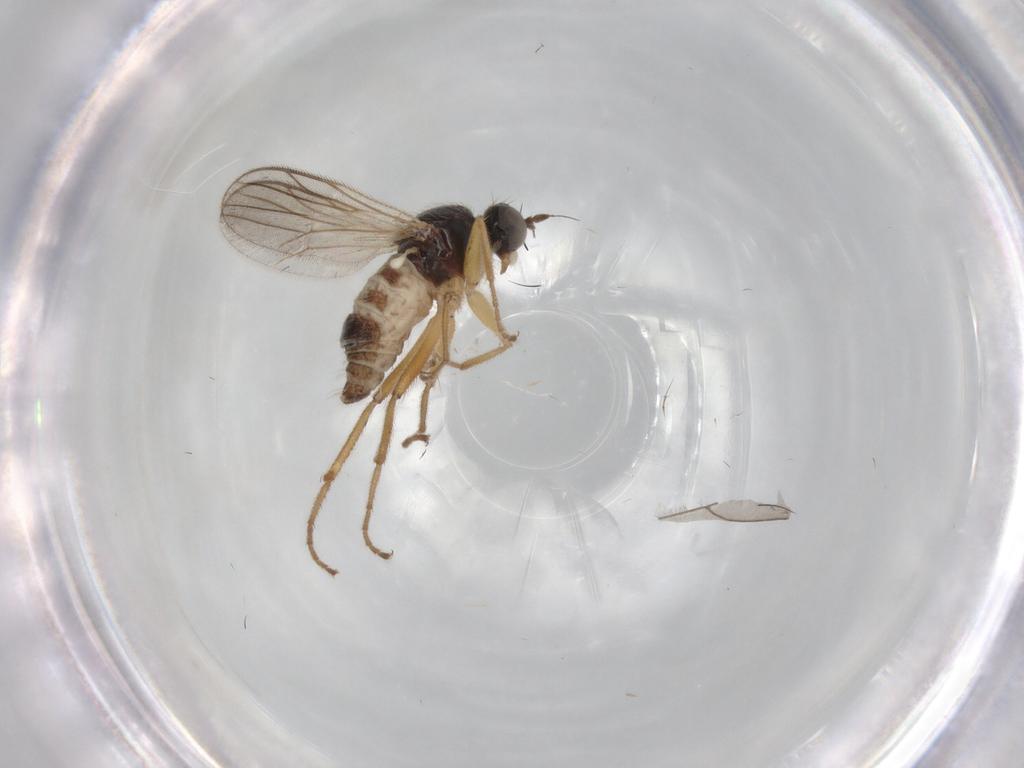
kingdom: Animalia
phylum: Arthropoda
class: Insecta
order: Diptera
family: Hybotidae
